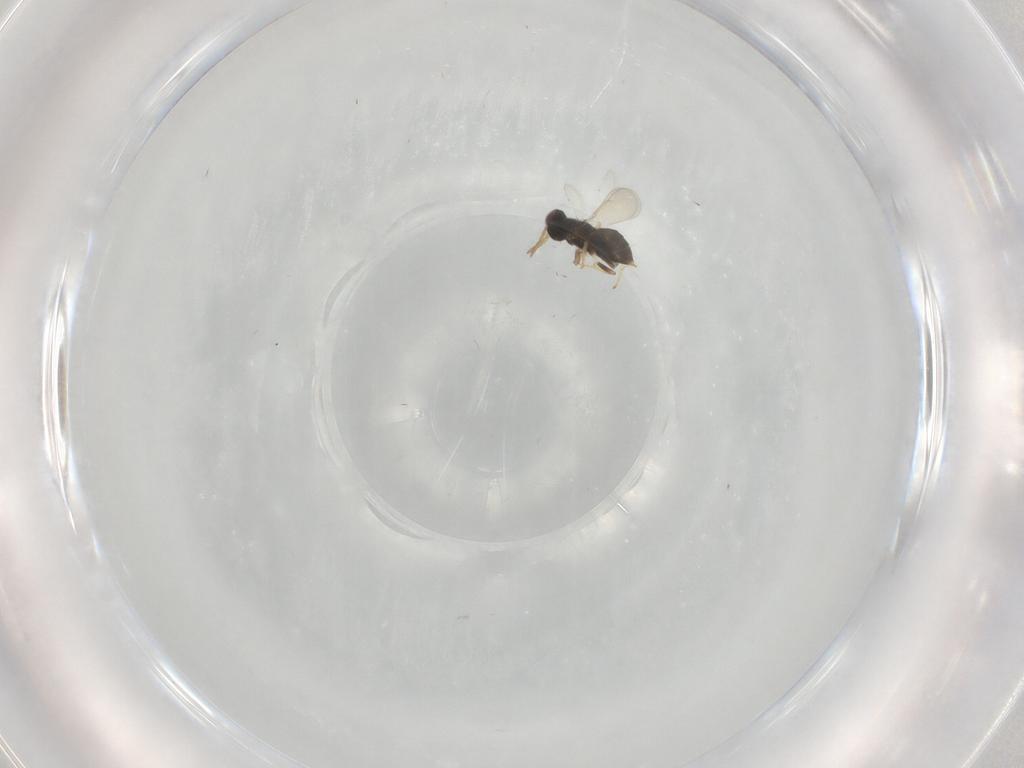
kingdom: Animalia
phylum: Arthropoda
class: Insecta
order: Hymenoptera
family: Aphelinidae
